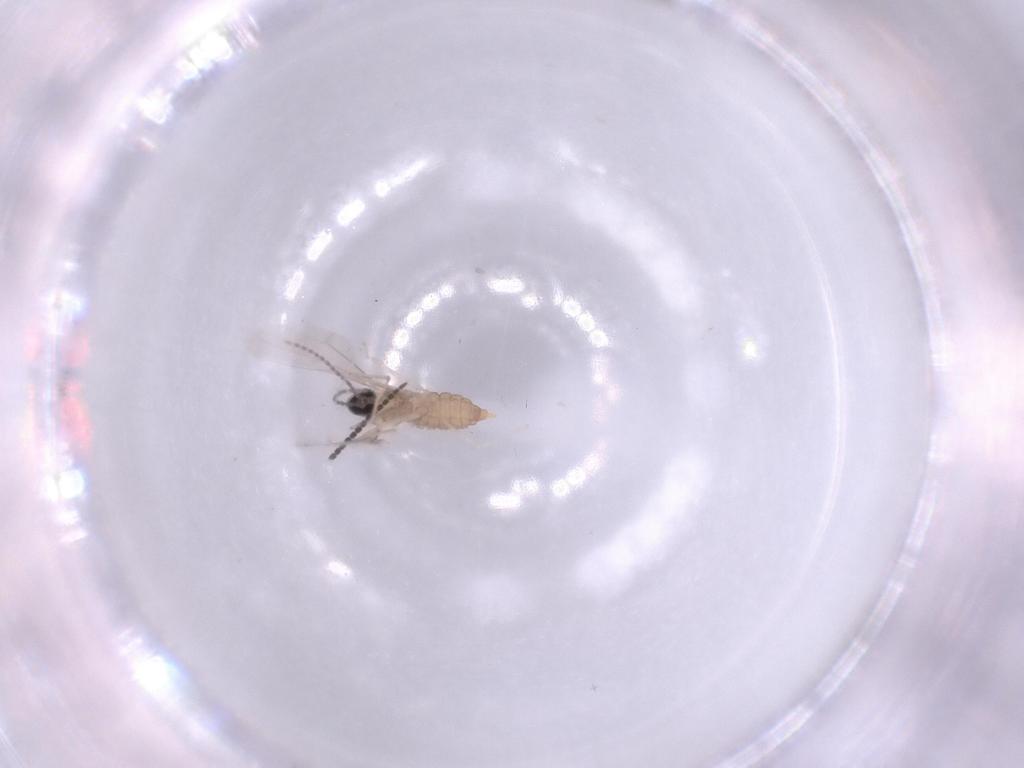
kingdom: Animalia
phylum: Arthropoda
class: Insecta
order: Diptera
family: Cecidomyiidae
